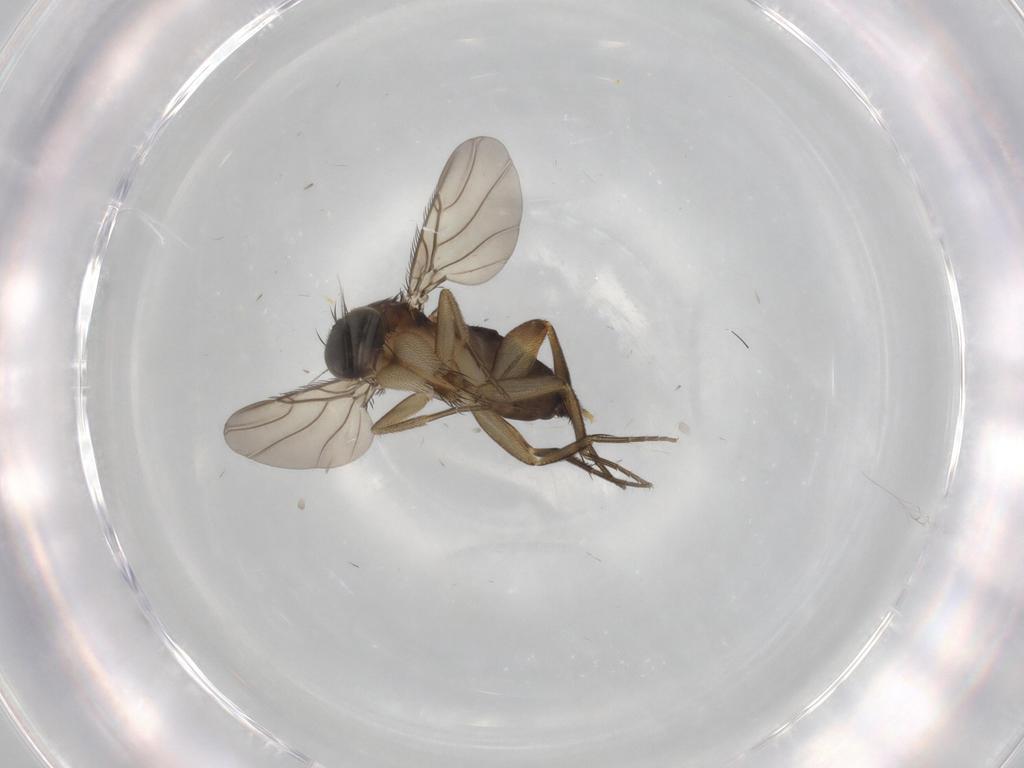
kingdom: Animalia
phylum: Arthropoda
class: Insecta
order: Diptera
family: Phoridae
